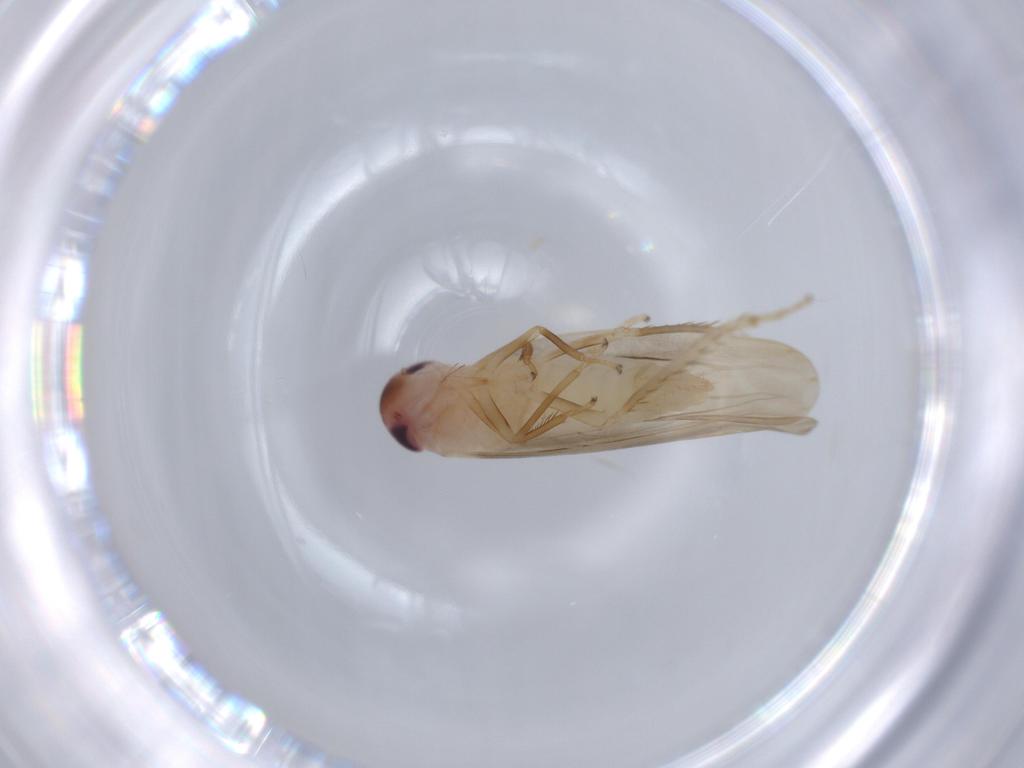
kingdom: Animalia
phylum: Arthropoda
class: Insecta
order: Hemiptera
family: Cicadellidae
